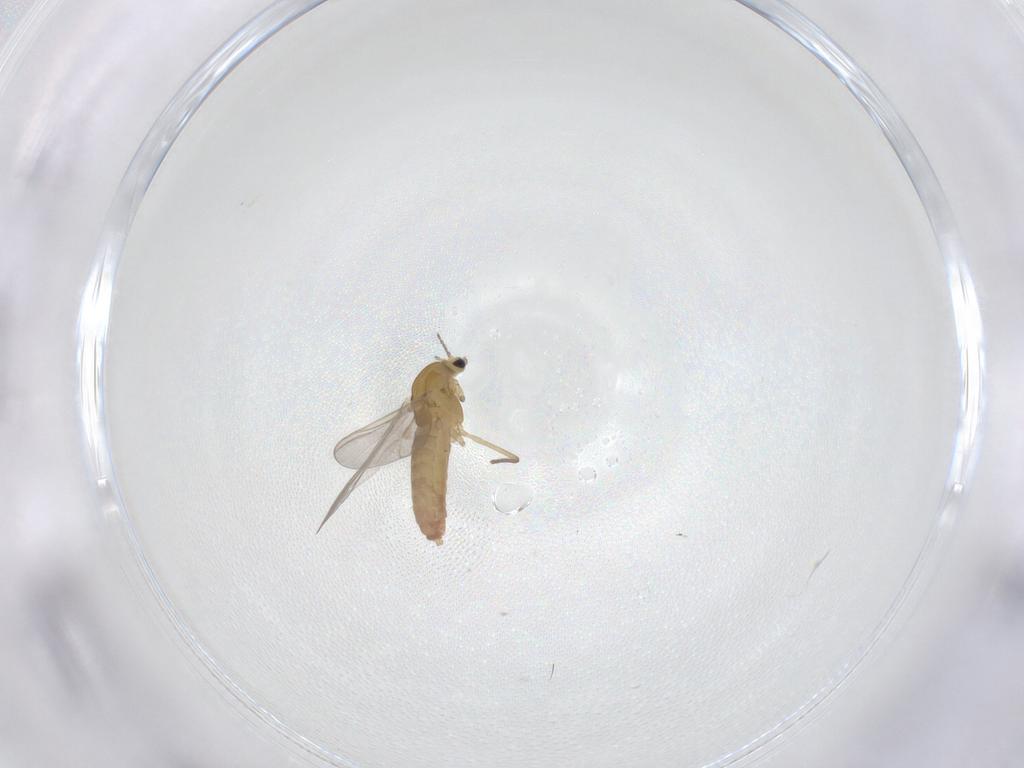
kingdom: Animalia
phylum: Arthropoda
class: Insecta
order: Diptera
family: Chironomidae
